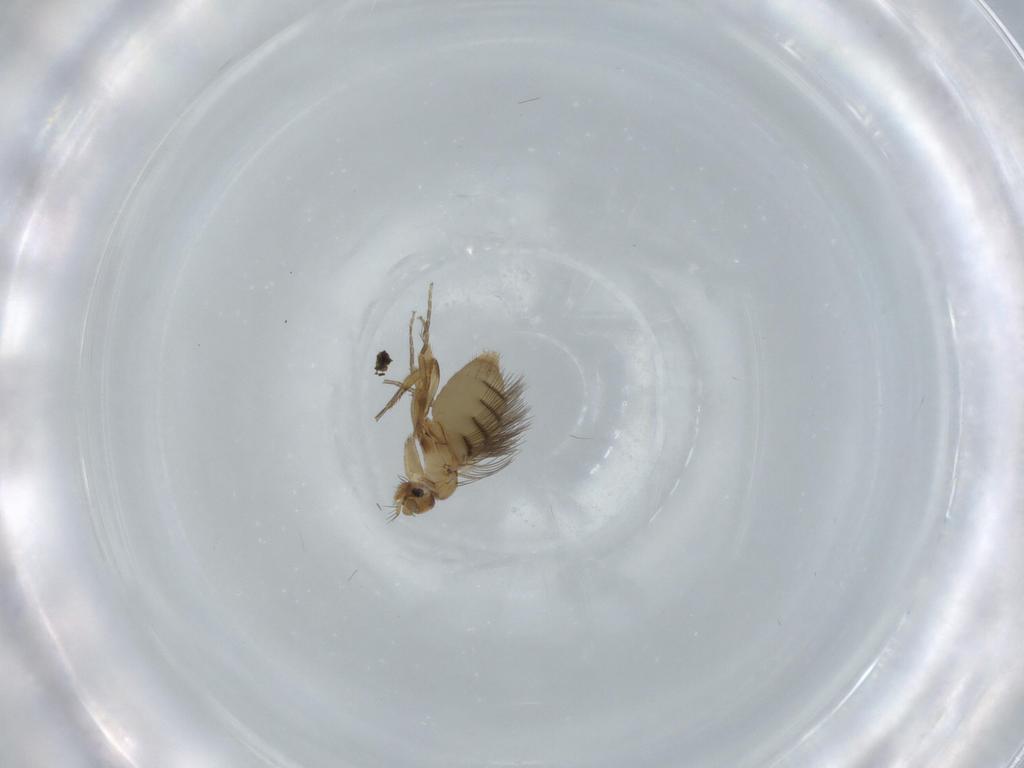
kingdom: Animalia
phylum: Arthropoda
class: Insecta
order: Diptera
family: Phoridae
